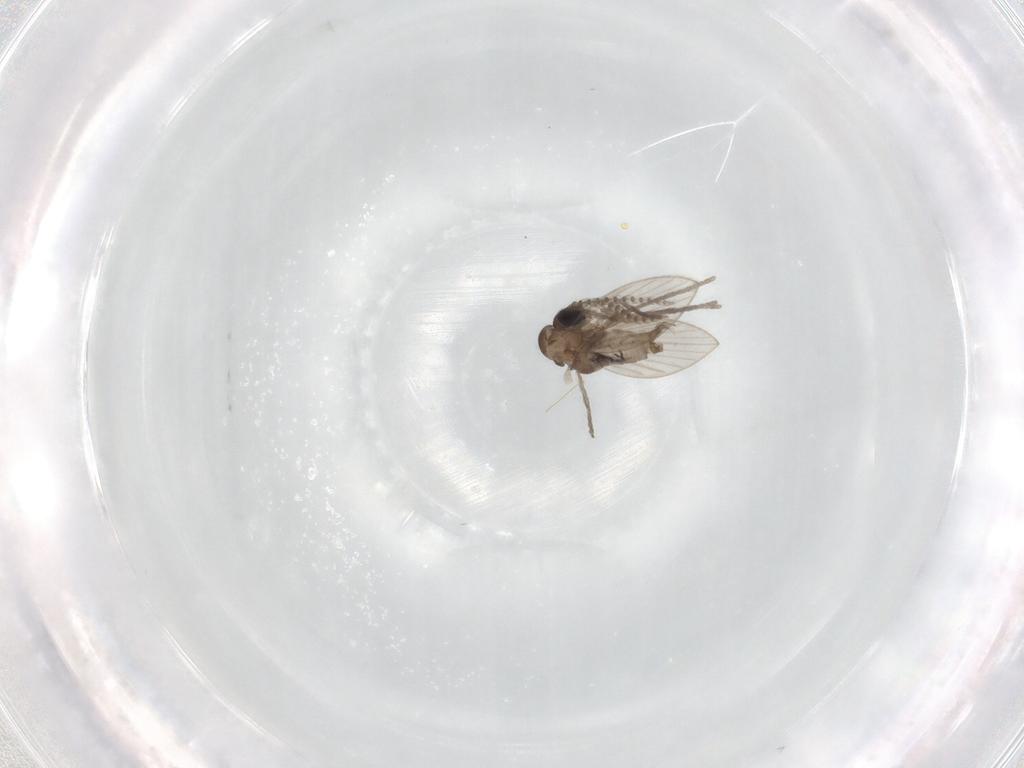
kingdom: Animalia
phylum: Arthropoda
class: Insecta
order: Diptera
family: Psychodidae
